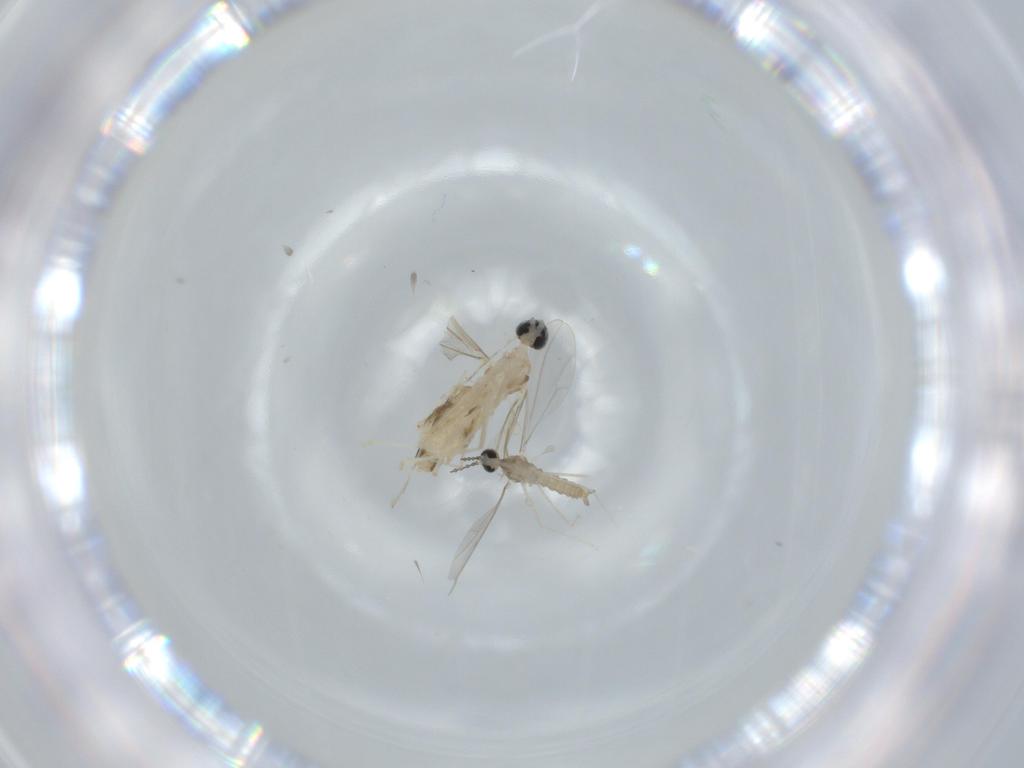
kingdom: Animalia
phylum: Arthropoda
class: Insecta
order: Diptera
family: Cecidomyiidae
